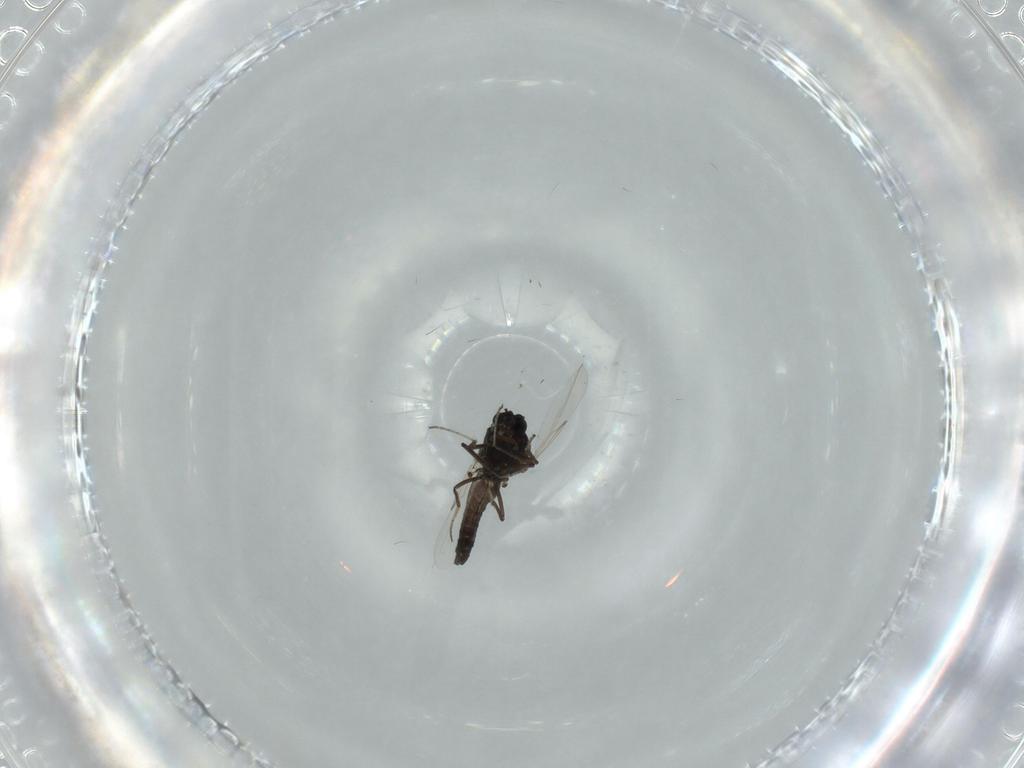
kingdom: Animalia
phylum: Arthropoda
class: Insecta
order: Diptera
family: Chironomidae
